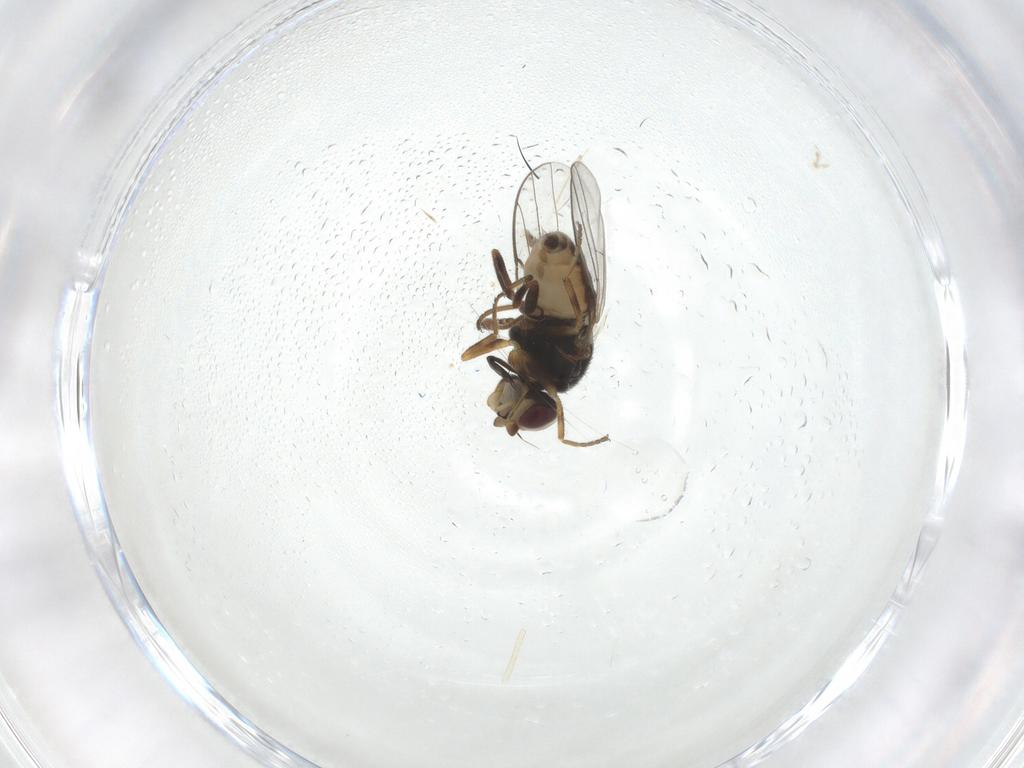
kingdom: Animalia
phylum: Arthropoda
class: Insecta
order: Diptera
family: Chloropidae
